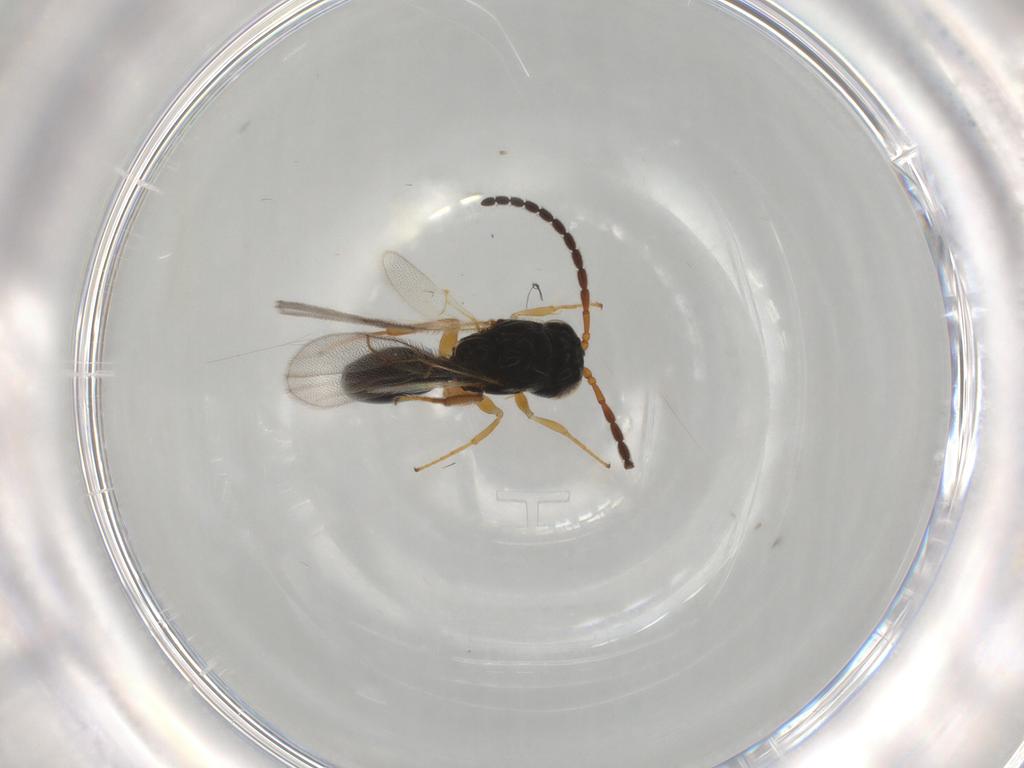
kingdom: Animalia
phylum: Arthropoda
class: Insecta
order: Hymenoptera
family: Figitidae
